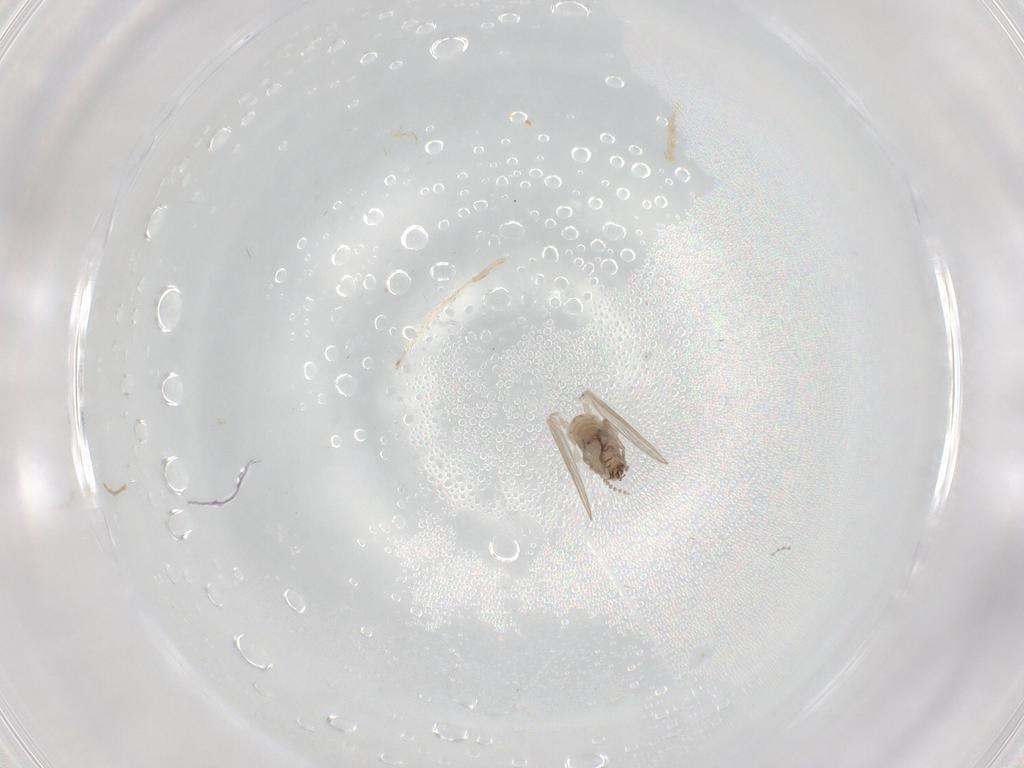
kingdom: Animalia
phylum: Arthropoda
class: Insecta
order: Diptera
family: Psychodidae
